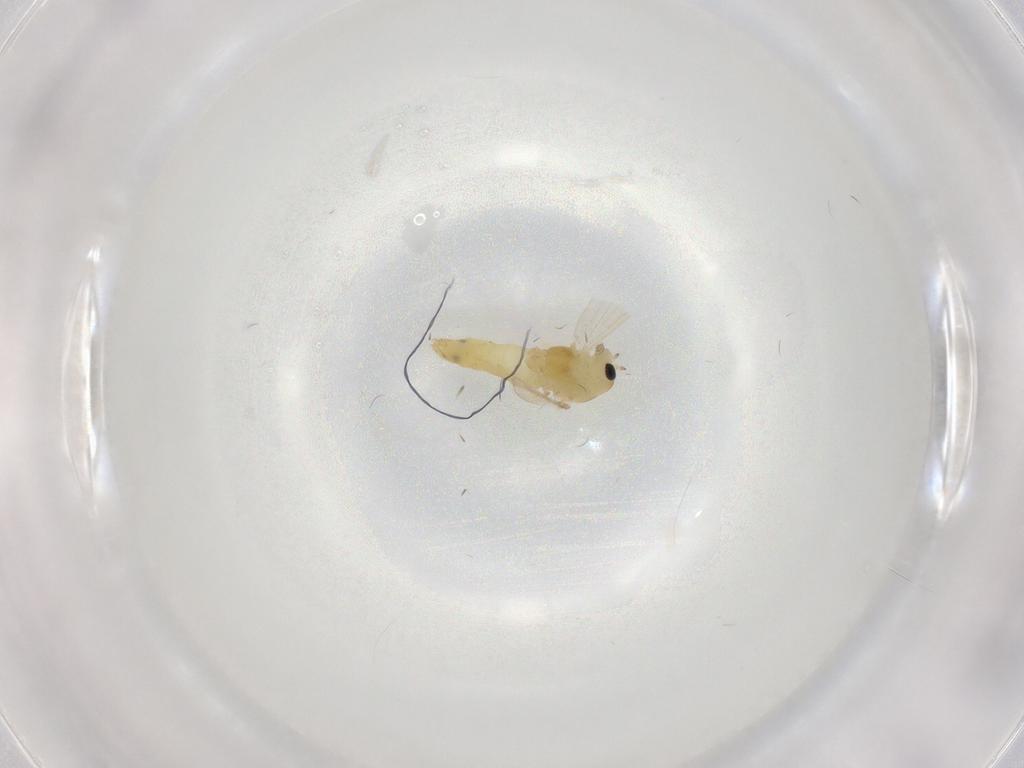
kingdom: Animalia
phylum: Arthropoda
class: Insecta
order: Diptera
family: Chironomidae
